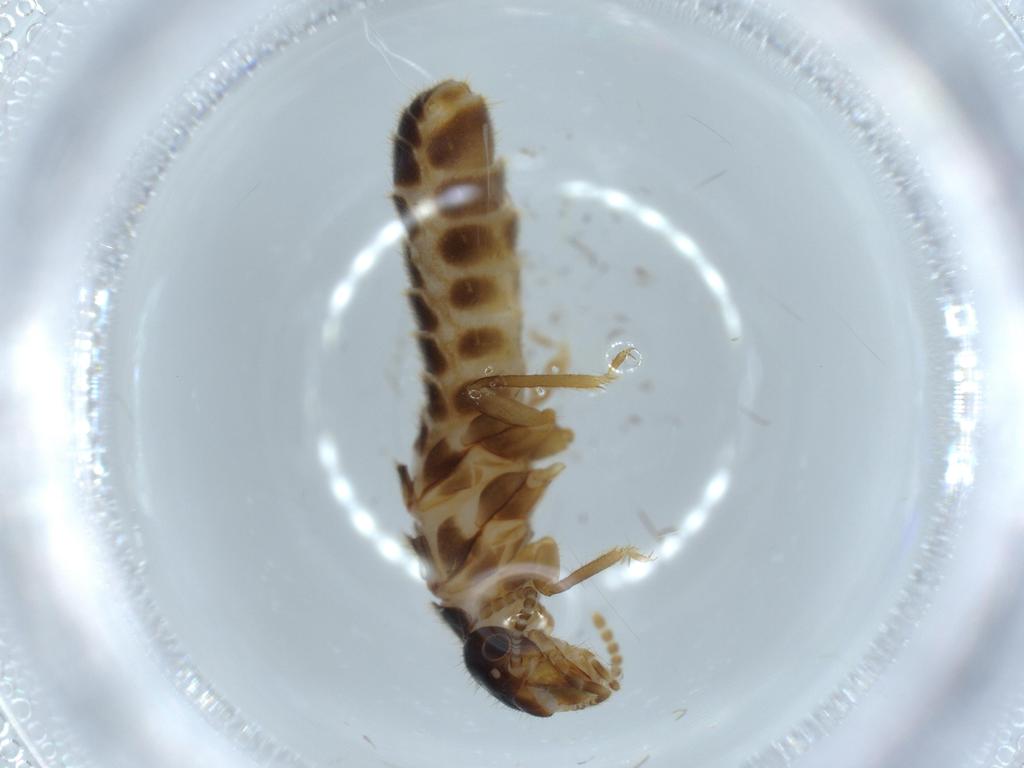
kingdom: Animalia
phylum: Arthropoda
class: Insecta
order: Blattodea
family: Termitidae
